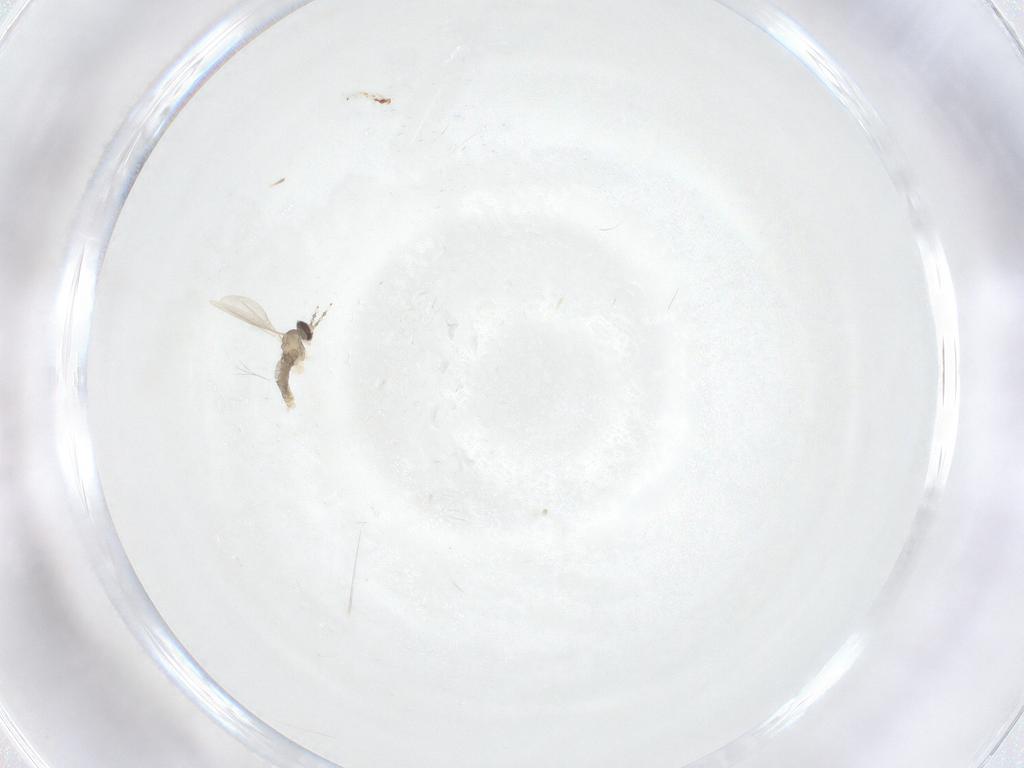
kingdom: Animalia
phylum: Arthropoda
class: Insecta
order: Diptera
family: Cecidomyiidae
